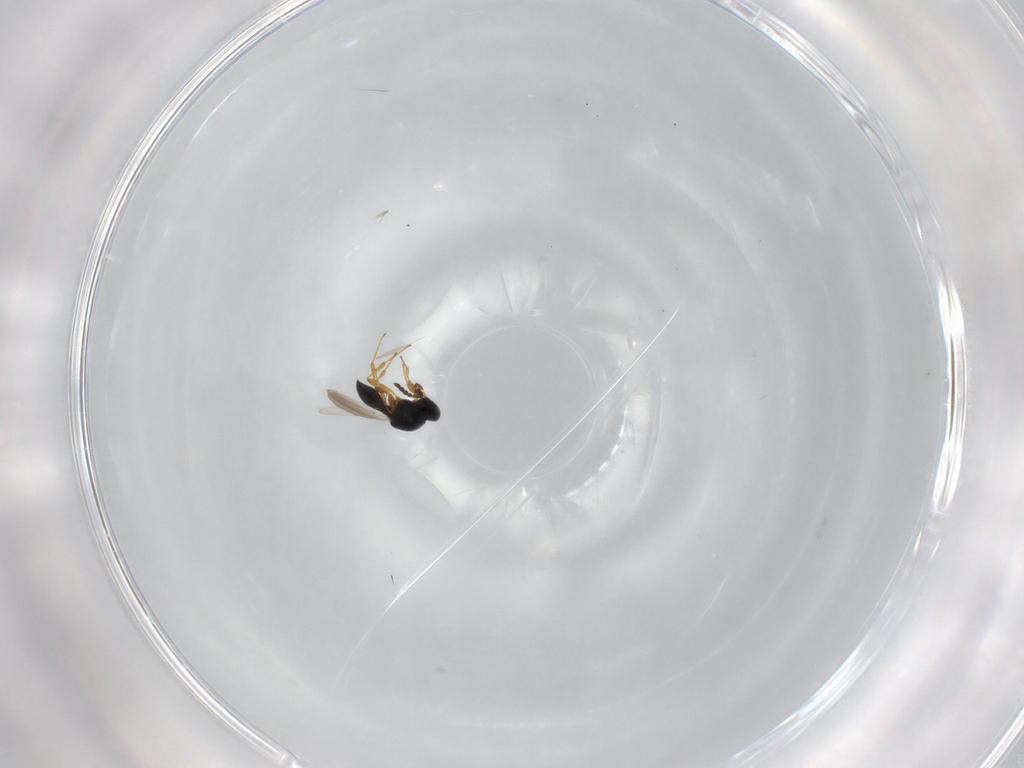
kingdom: Animalia
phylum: Arthropoda
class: Insecta
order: Hymenoptera
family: Platygastridae
